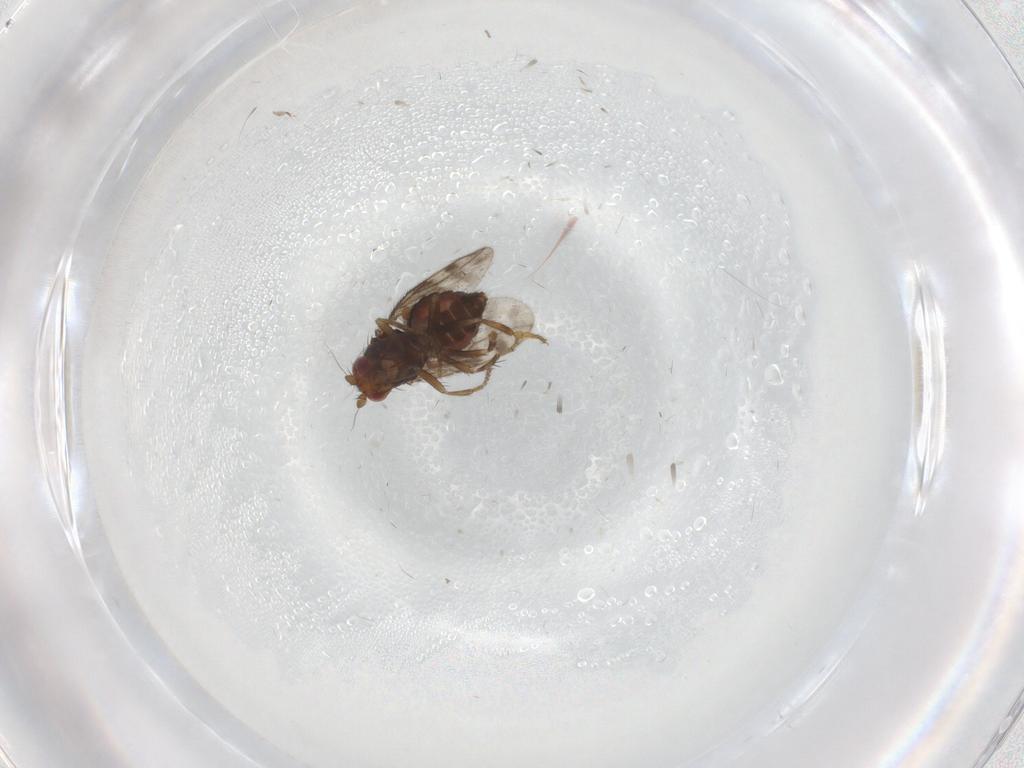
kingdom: Animalia
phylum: Arthropoda
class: Insecta
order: Diptera
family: Sphaeroceridae
